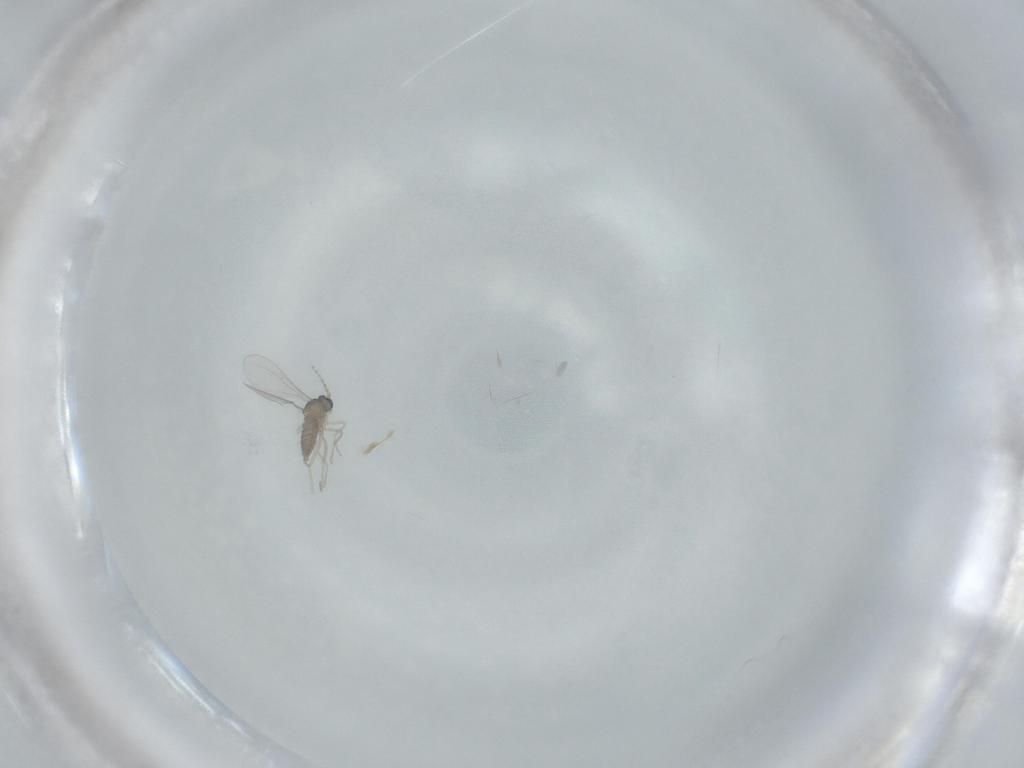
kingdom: Animalia
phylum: Arthropoda
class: Insecta
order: Diptera
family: Cecidomyiidae
